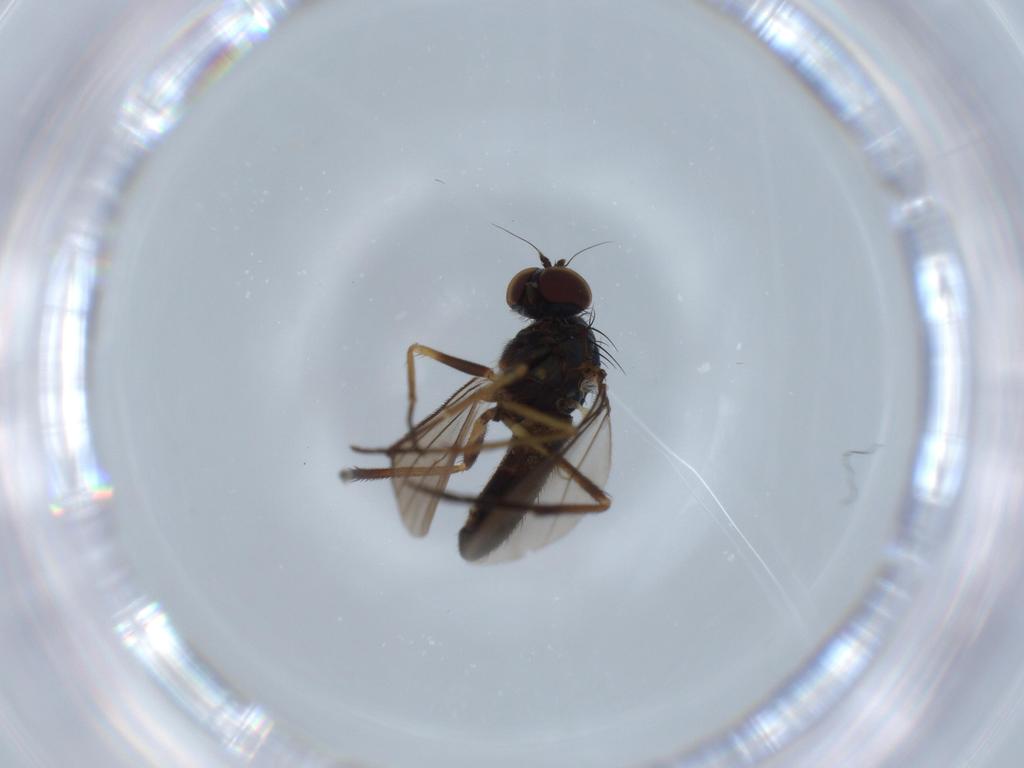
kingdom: Animalia
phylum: Arthropoda
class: Insecta
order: Diptera
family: Dolichopodidae
